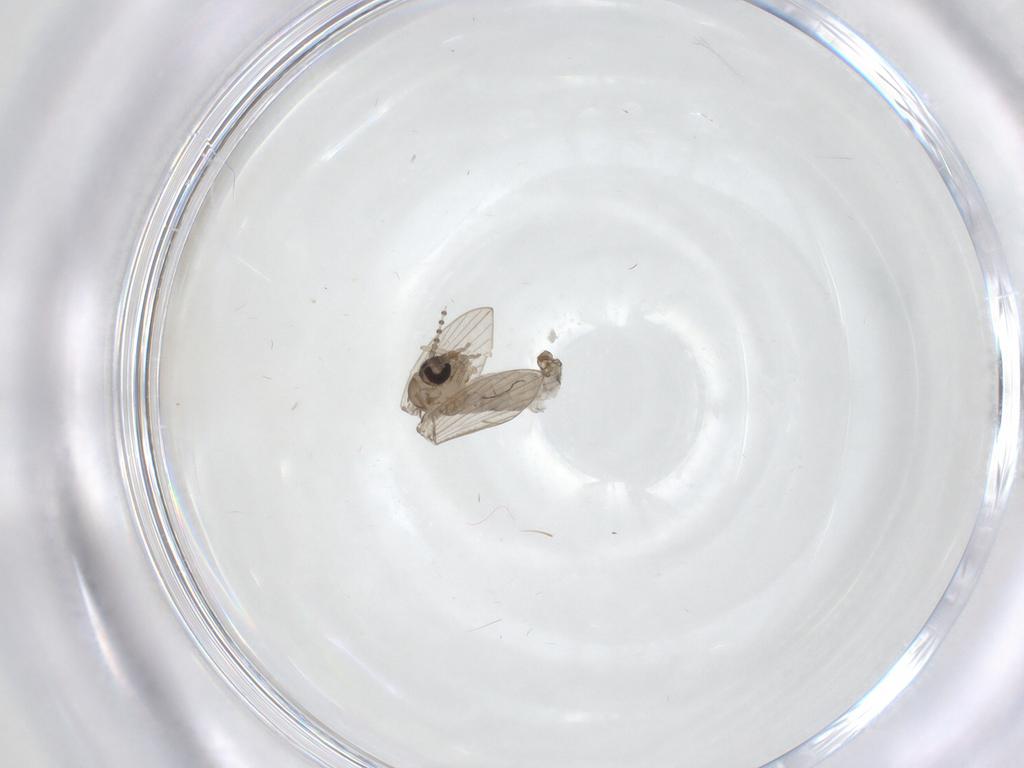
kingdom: Animalia
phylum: Arthropoda
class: Insecta
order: Diptera
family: Psychodidae
